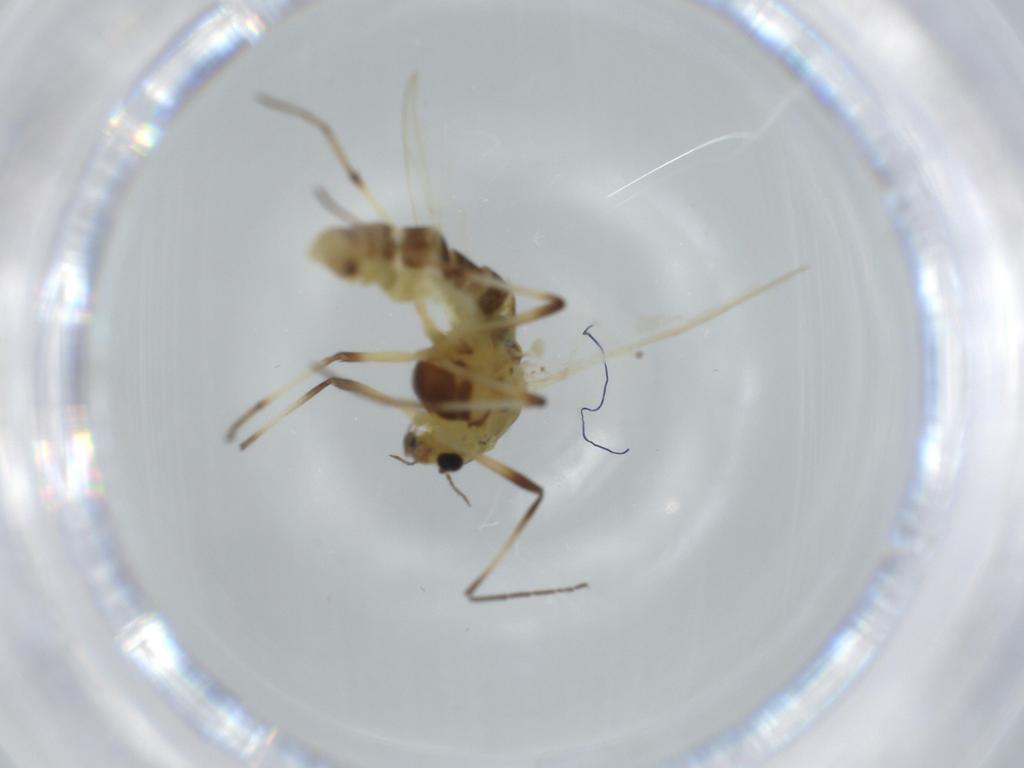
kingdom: Animalia
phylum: Arthropoda
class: Insecta
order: Diptera
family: Chironomidae
